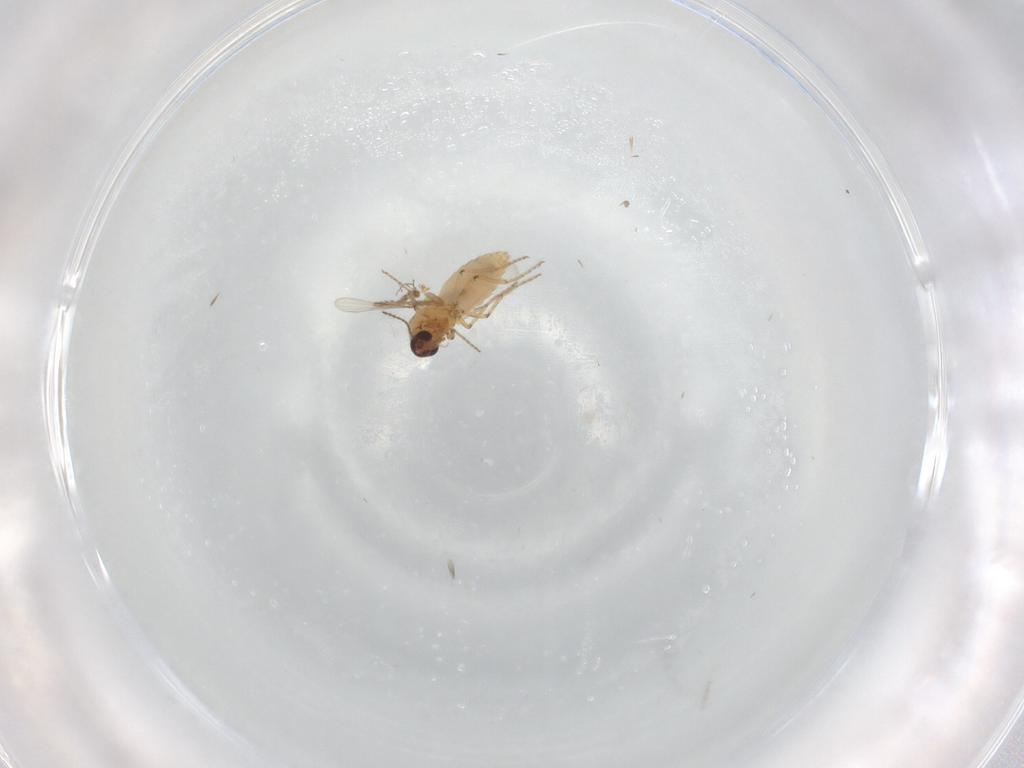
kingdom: Animalia
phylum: Arthropoda
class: Insecta
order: Diptera
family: Ceratopogonidae
